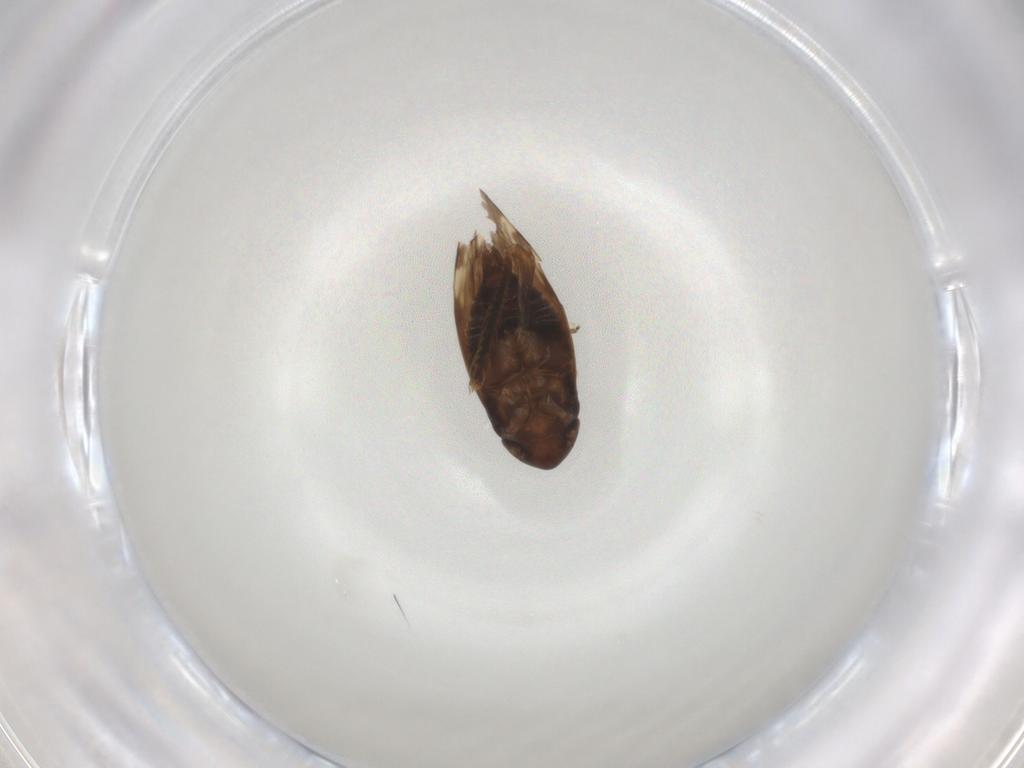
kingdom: Animalia
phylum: Arthropoda
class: Insecta
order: Hemiptera
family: Cicadellidae
